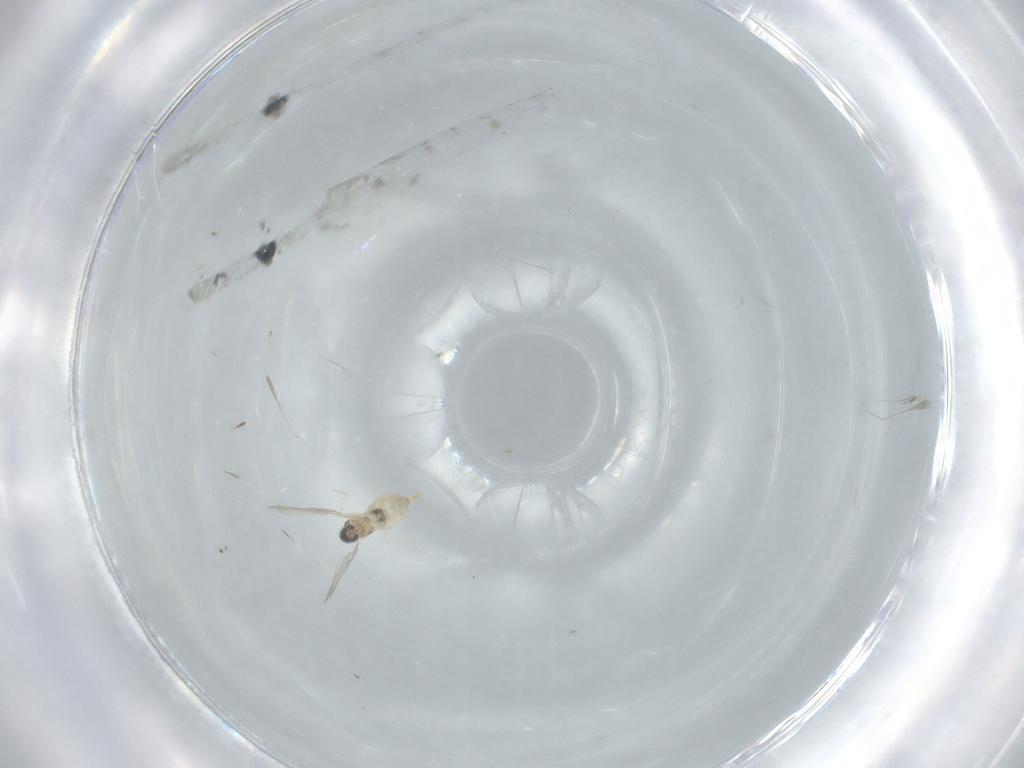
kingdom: Animalia
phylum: Arthropoda
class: Insecta
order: Diptera
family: Cecidomyiidae
